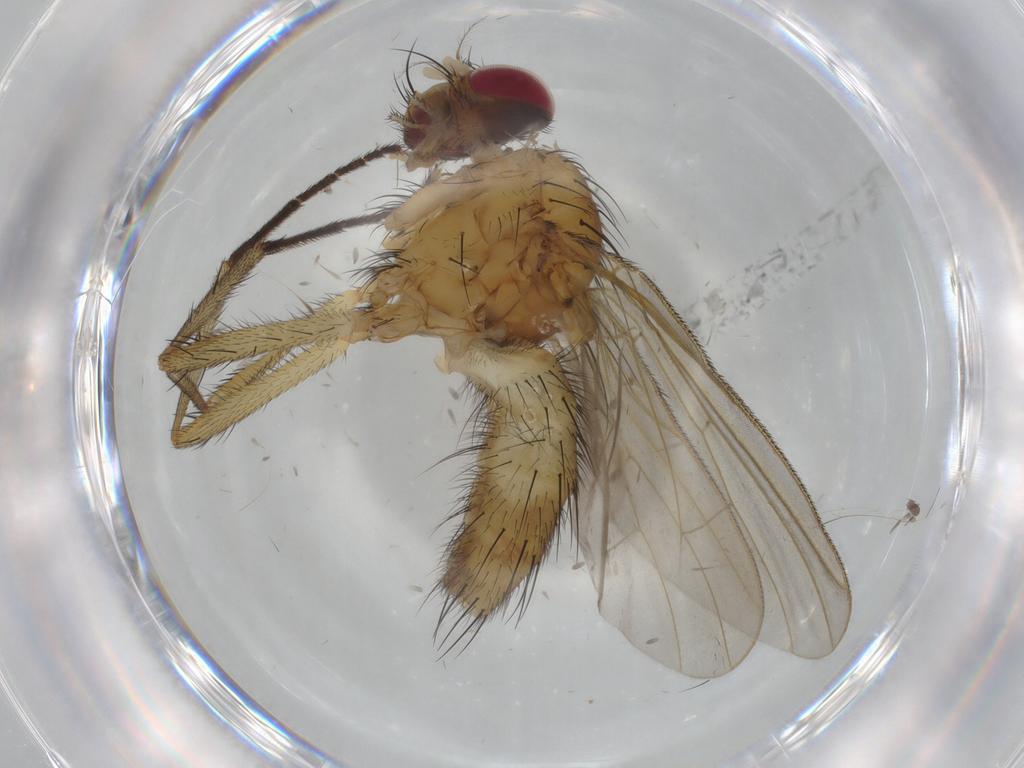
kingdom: Animalia
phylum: Arthropoda
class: Insecta
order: Diptera
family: Calliphoridae
